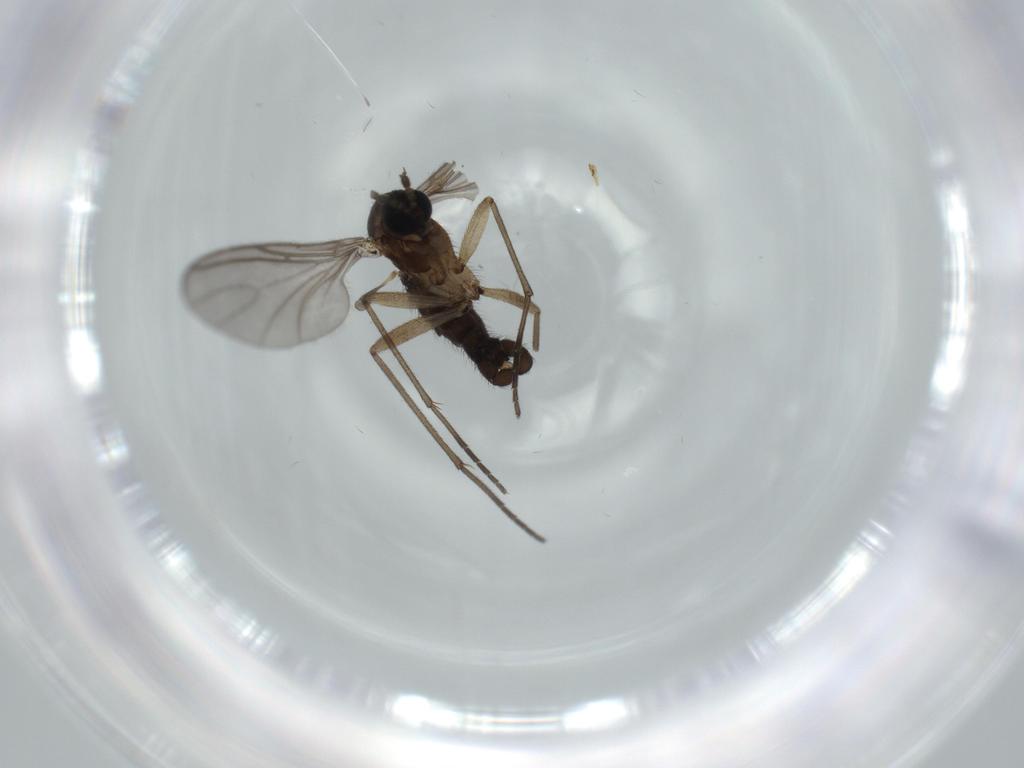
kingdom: Animalia
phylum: Arthropoda
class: Insecta
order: Diptera
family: Sciaridae
